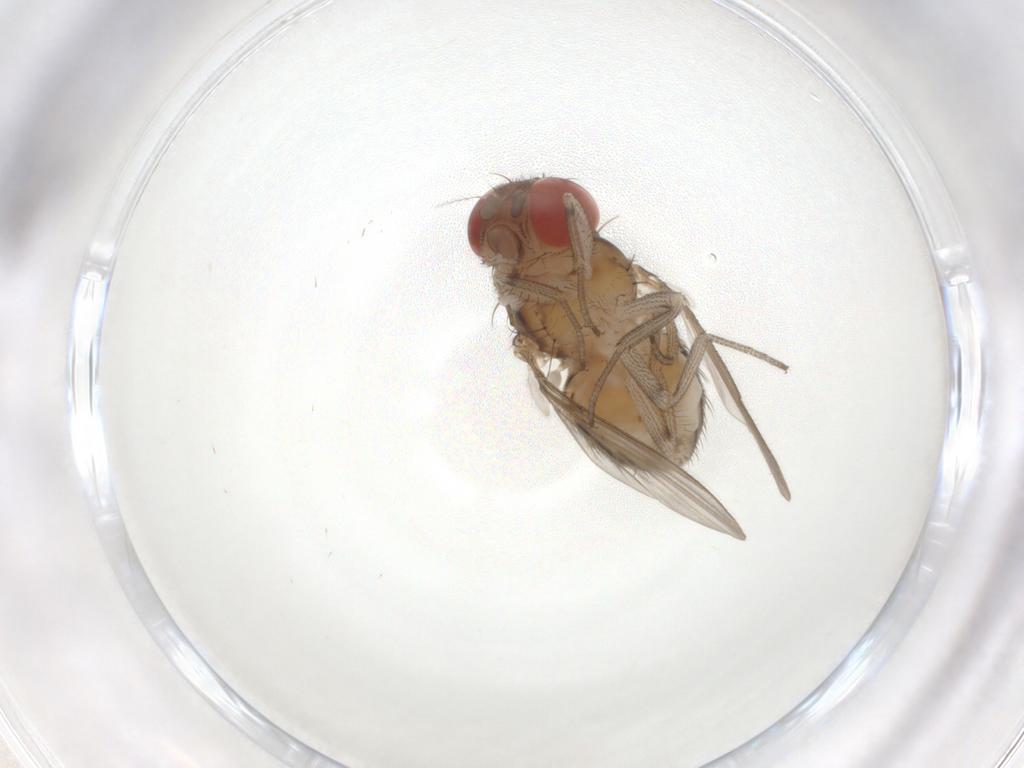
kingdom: Animalia
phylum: Arthropoda
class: Insecta
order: Diptera
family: Drosophilidae
